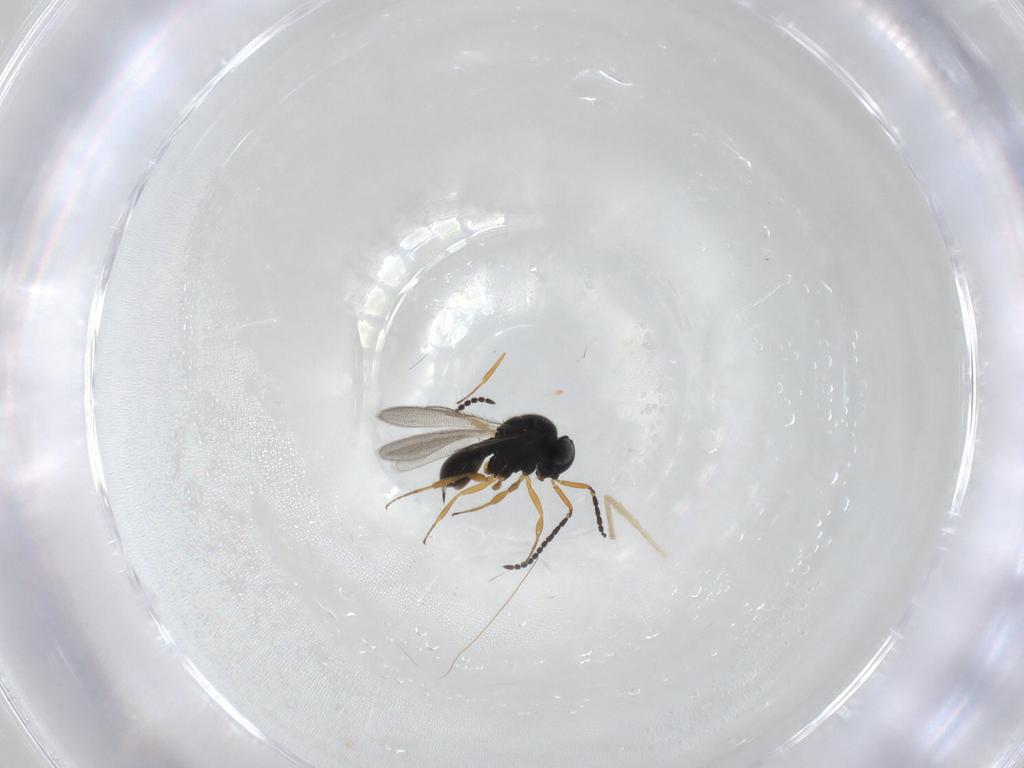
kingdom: Animalia
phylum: Arthropoda
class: Insecta
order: Hymenoptera
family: Scelionidae
